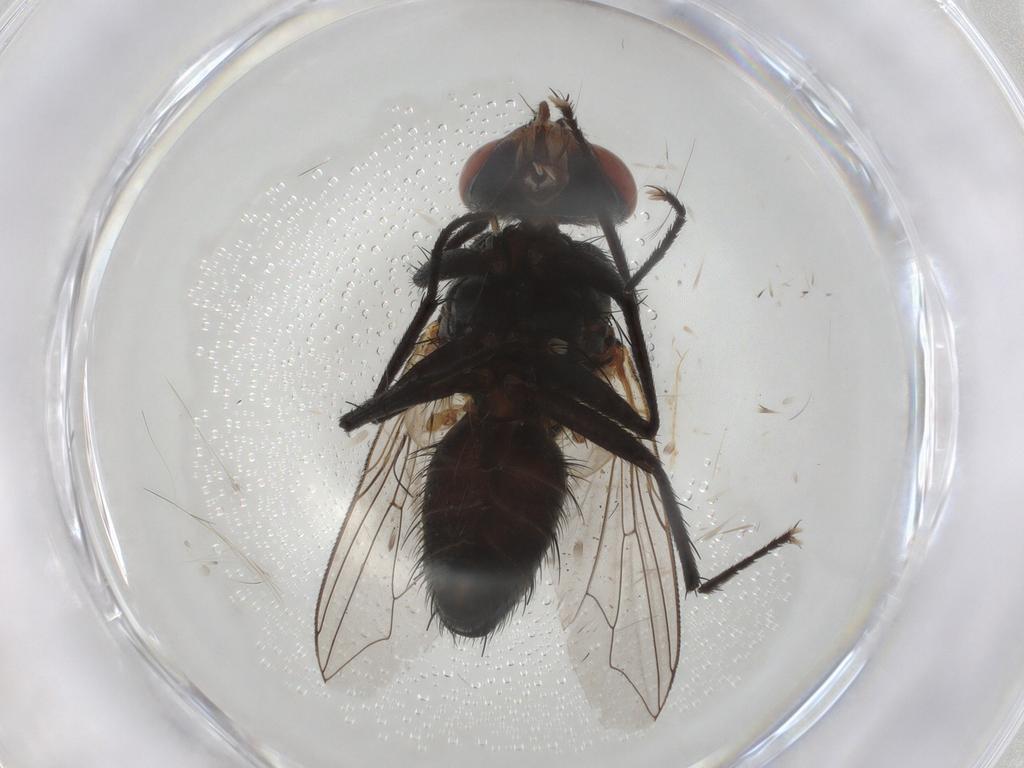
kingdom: Animalia
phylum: Arthropoda
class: Insecta
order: Diptera
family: Sarcophagidae
